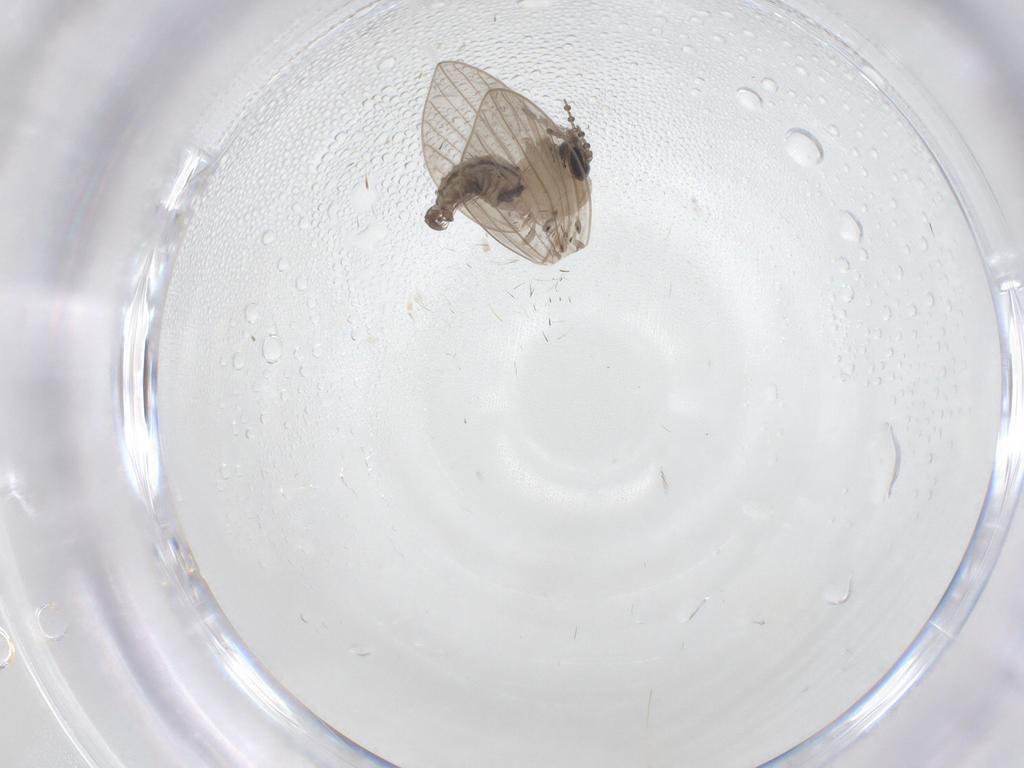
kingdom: Animalia
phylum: Arthropoda
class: Insecta
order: Diptera
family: Psychodidae
